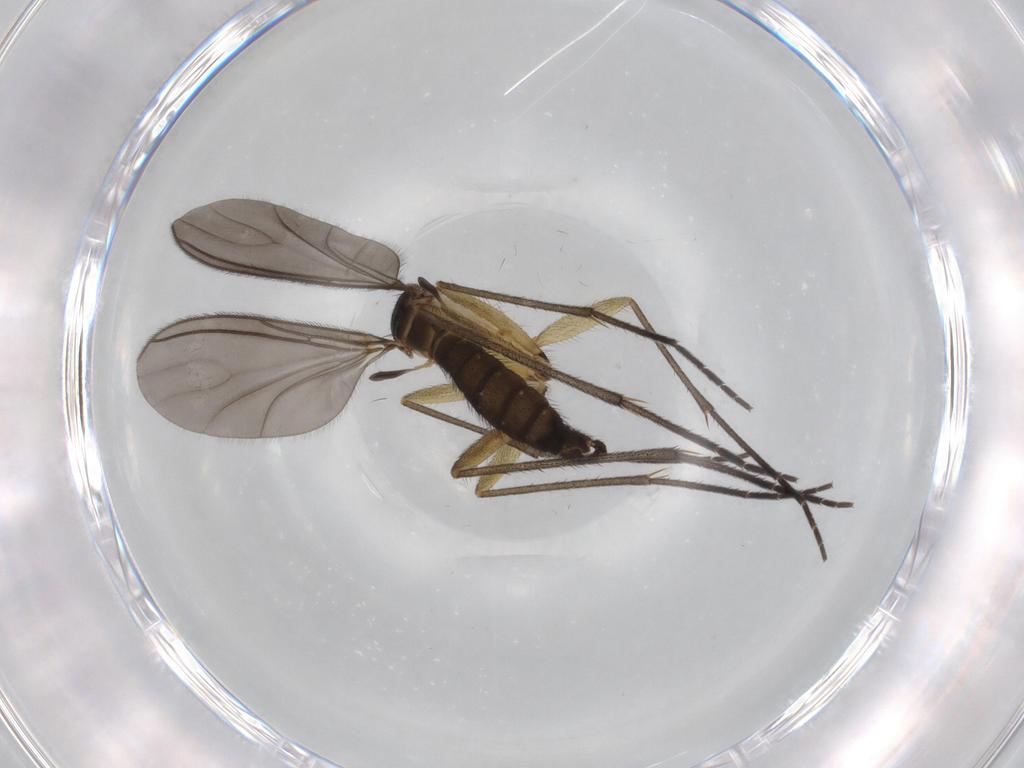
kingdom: Animalia
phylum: Arthropoda
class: Insecta
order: Diptera
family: Sciaridae
